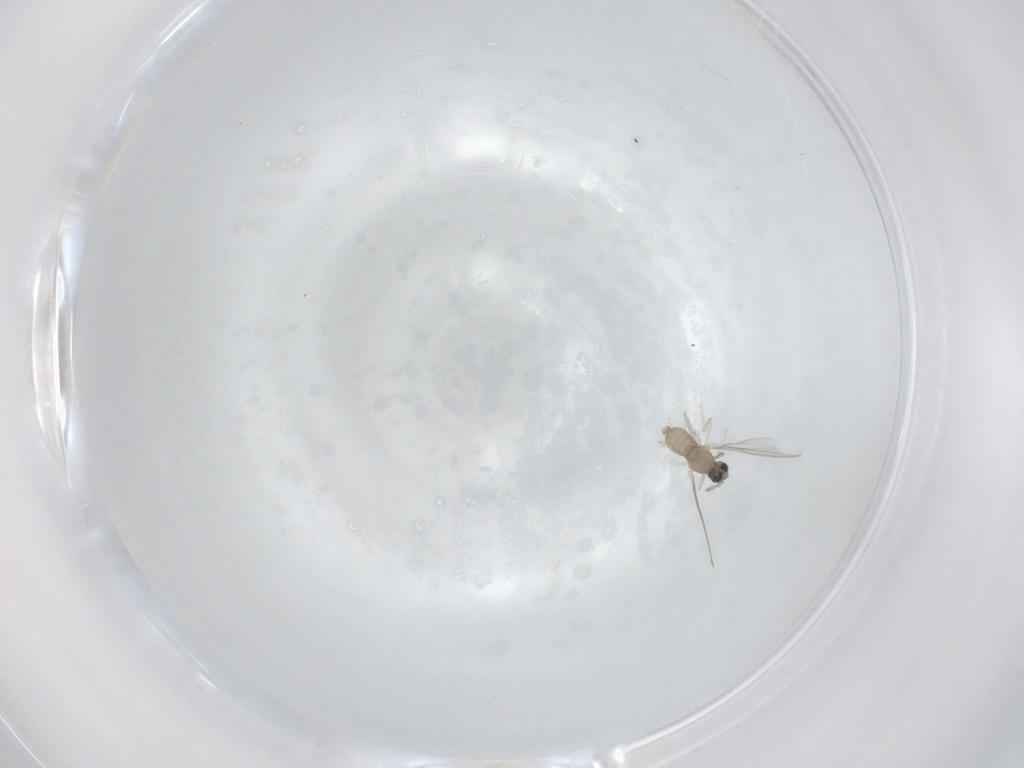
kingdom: Animalia
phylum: Arthropoda
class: Insecta
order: Diptera
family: Cecidomyiidae
